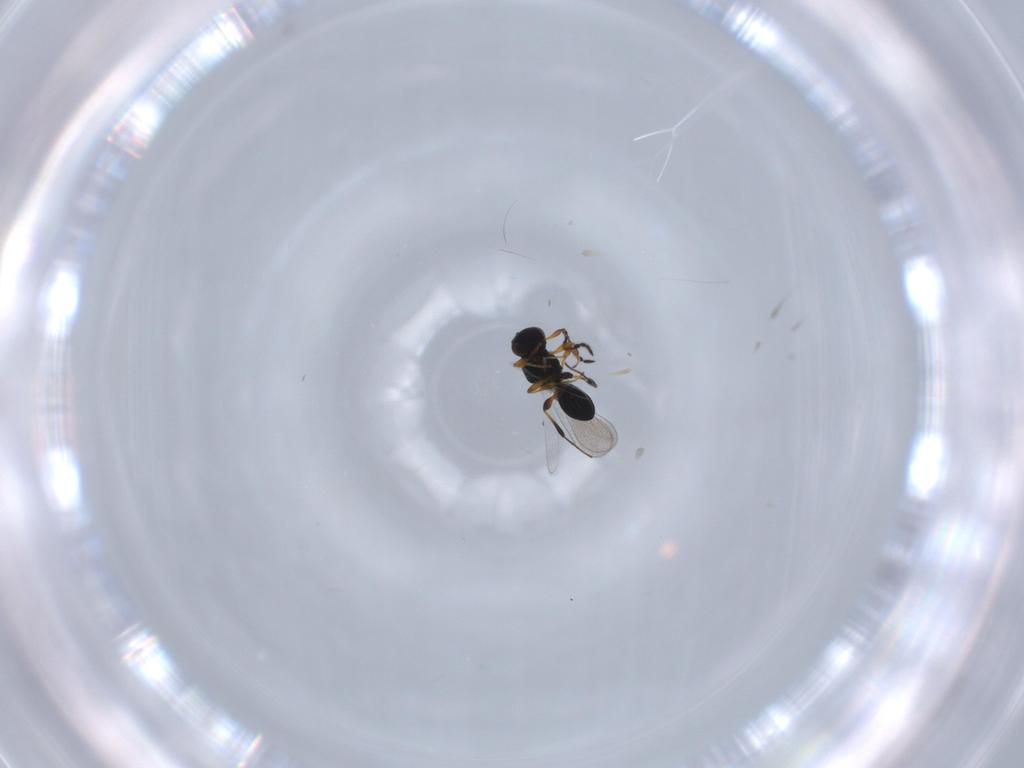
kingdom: Animalia
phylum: Arthropoda
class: Insecta
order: Hymenoptera
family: Platygastridae
